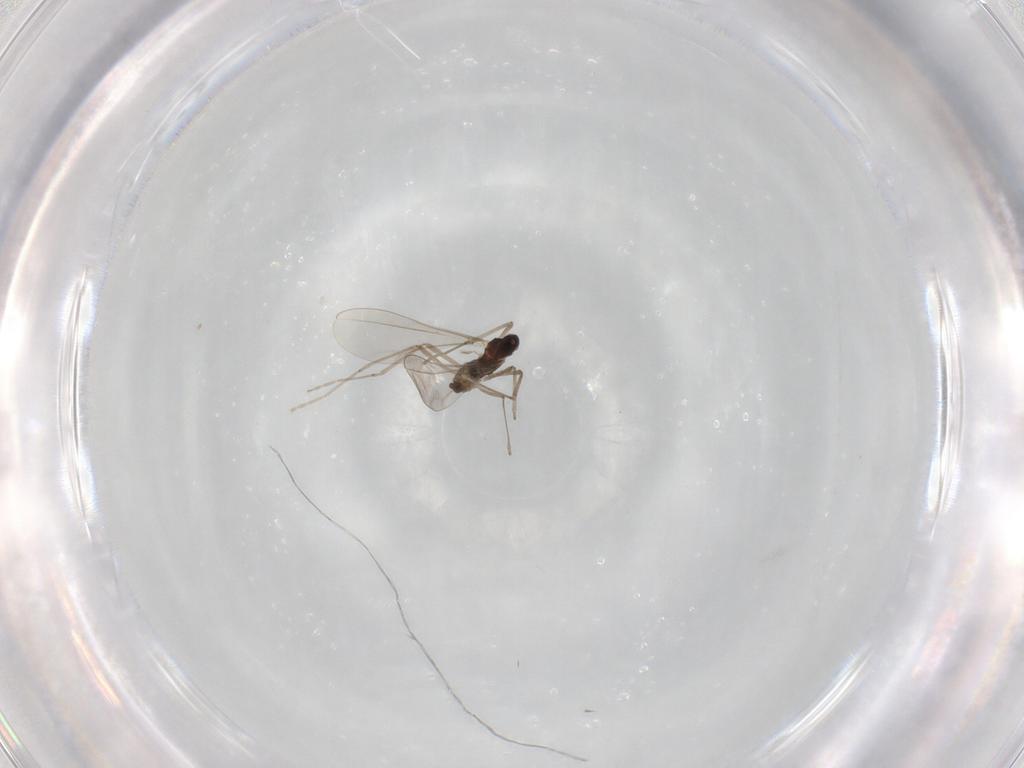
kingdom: Animalia
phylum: Arthropoda
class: Insecta
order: Diptera
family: Cecidomyiidae
